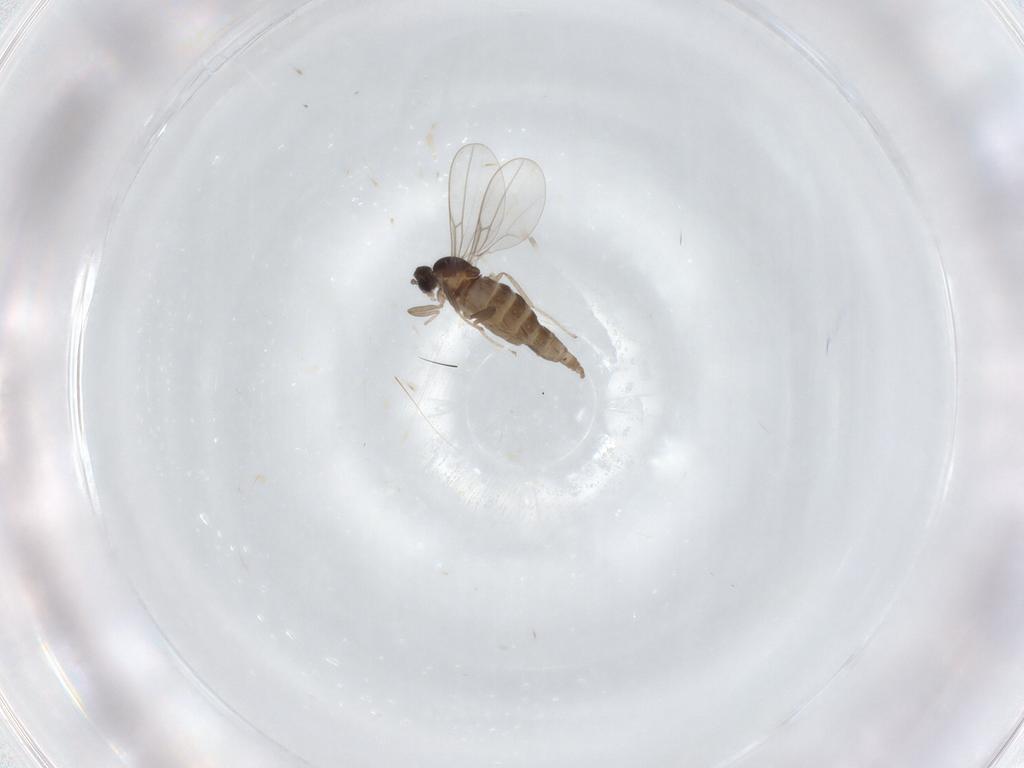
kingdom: Animalia
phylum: Arthropoda
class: Insecta
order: Diptera
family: Cecidomyiidae
